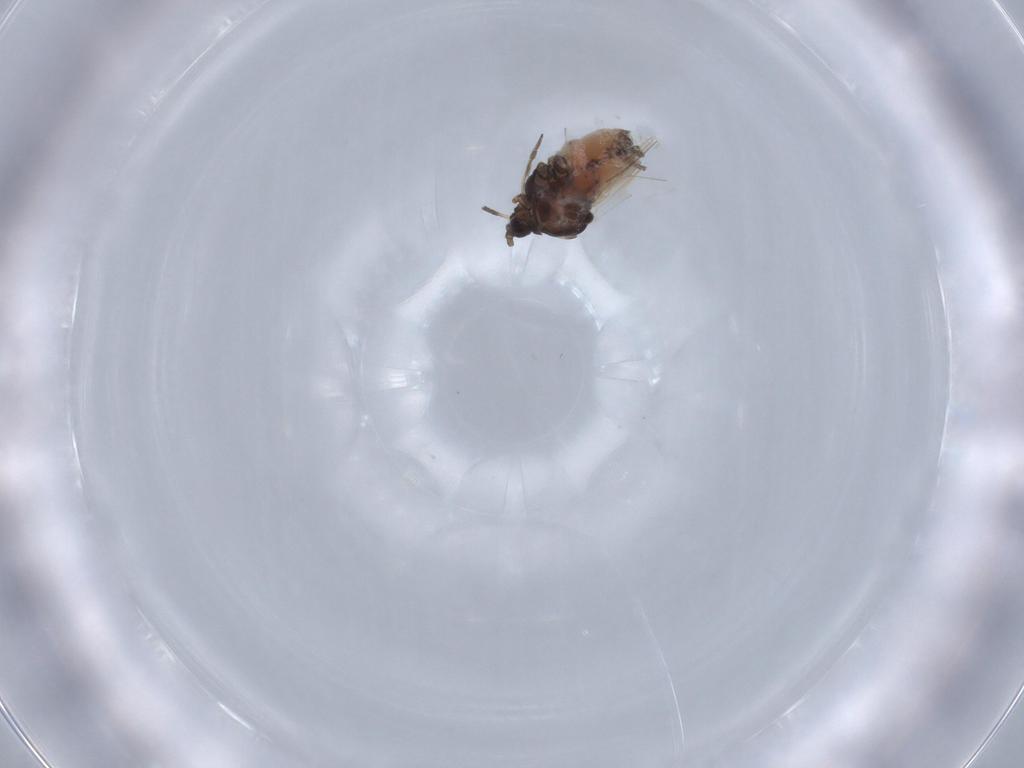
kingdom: Animalia
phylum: Arthropoda
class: Insecta
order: Hemiptera
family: Aphididae
